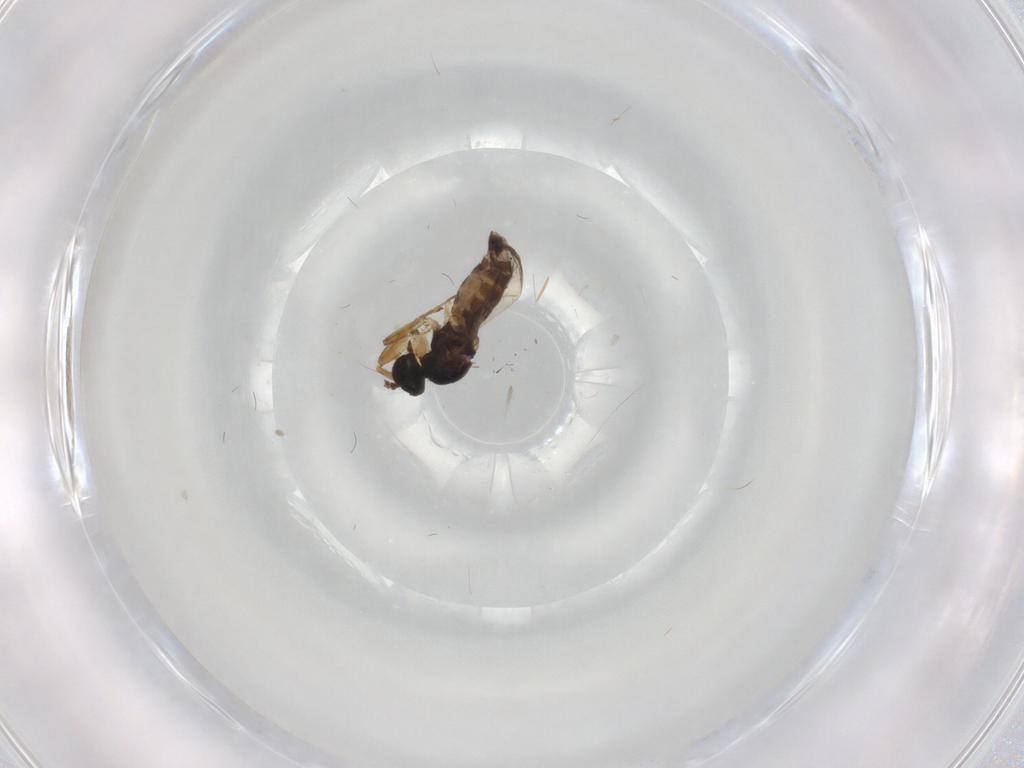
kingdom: Animalia
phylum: Arthropoda
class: Insecta
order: Diptera
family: Hybotidae
